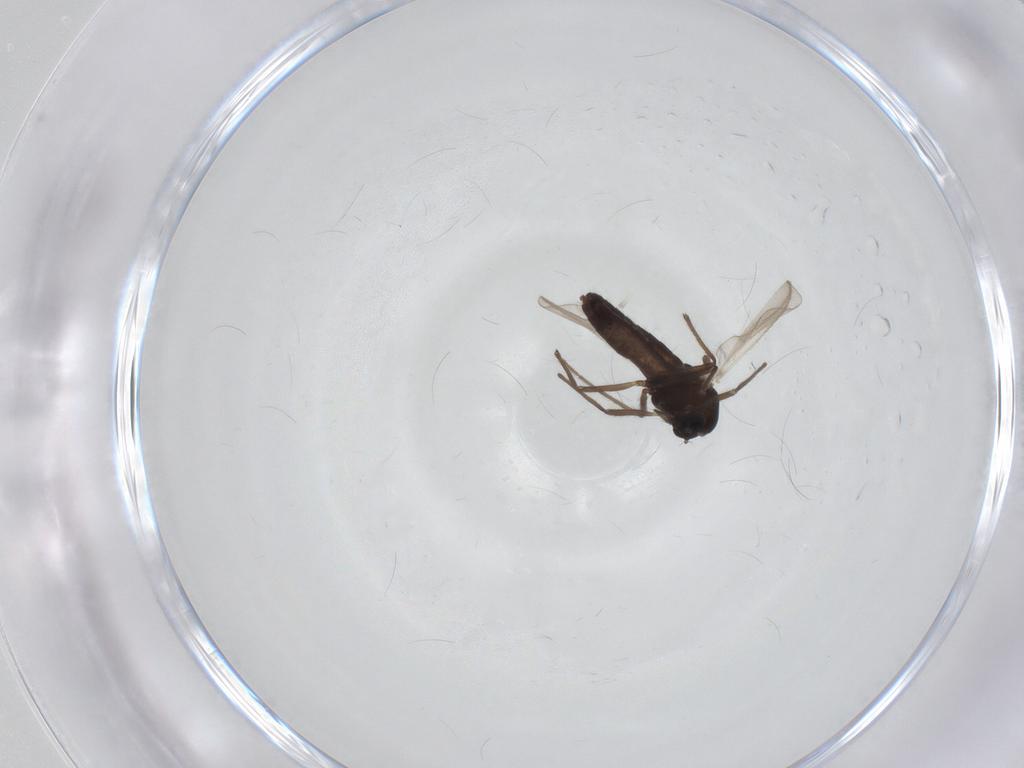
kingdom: Animalia
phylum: Arthropoda
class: Insecta
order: Diptera
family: Chironomidae
